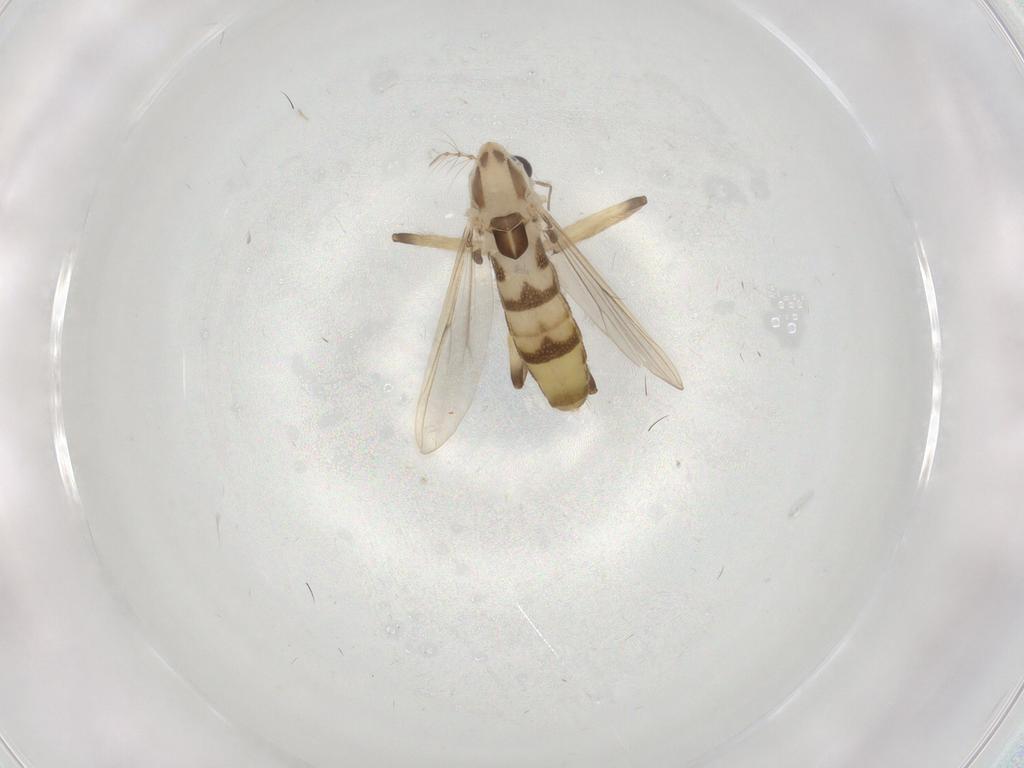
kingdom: Animalia
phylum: Arthropoda
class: Insecta
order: Diptera
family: Chironomidae
